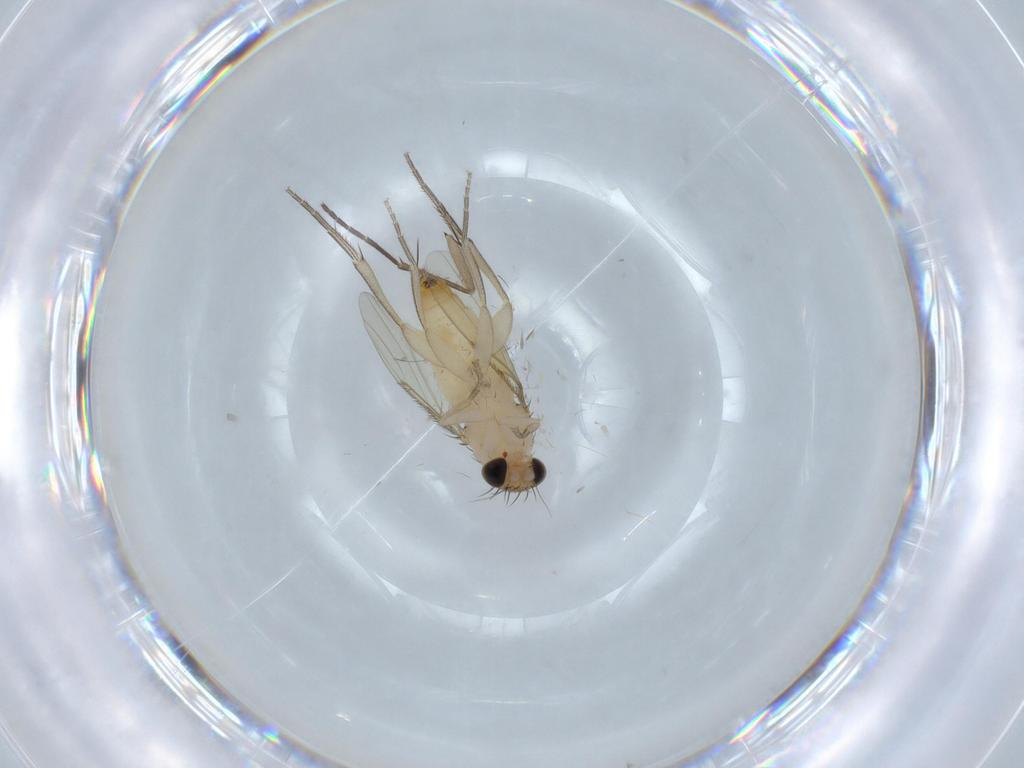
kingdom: Animalia
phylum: Arthropoda
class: Insecta
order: Diptera
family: Phoridae
